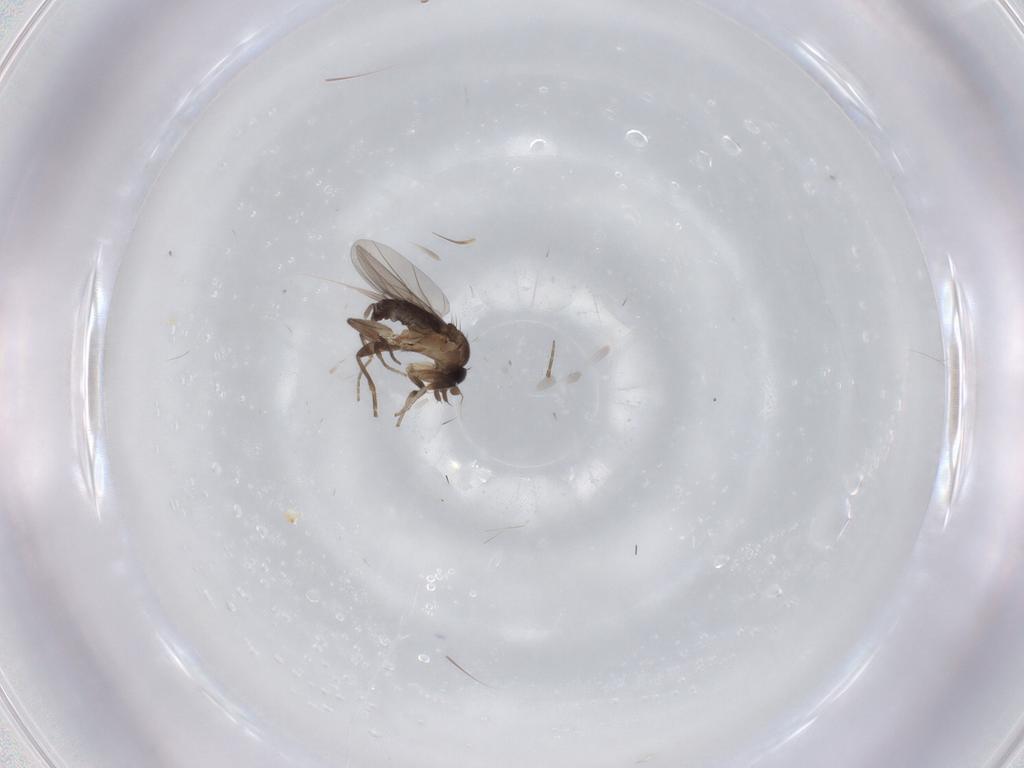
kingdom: Animalia
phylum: Arthropoda
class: Insecta
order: Diptera
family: Phoridae
